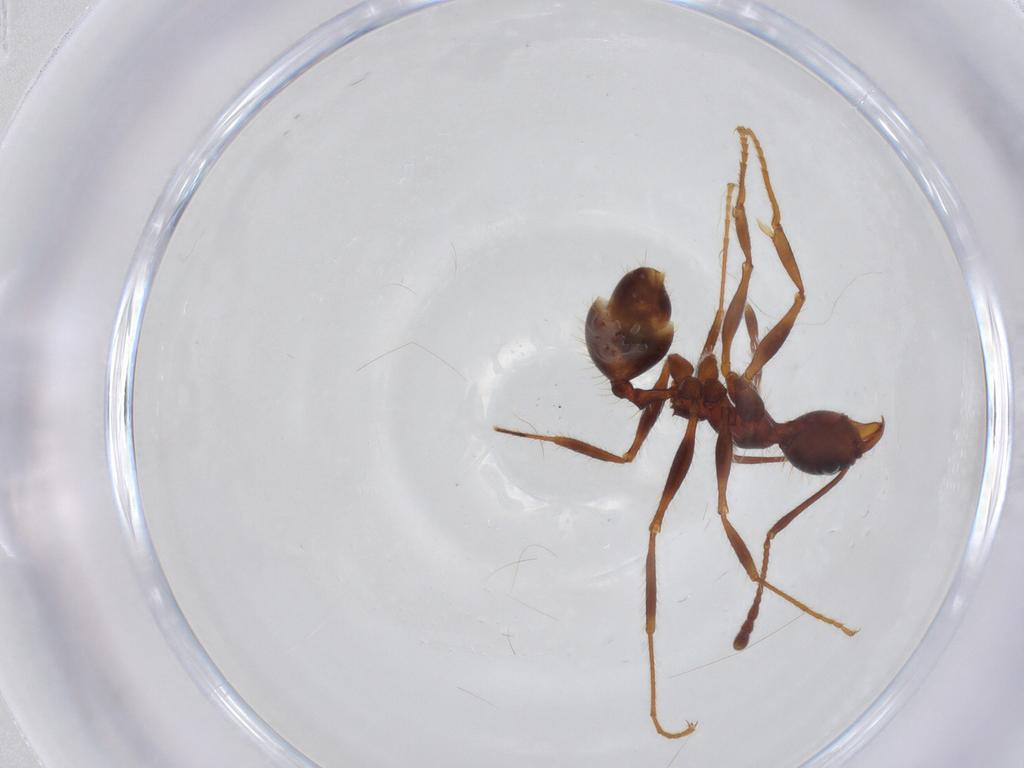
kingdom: Animalia
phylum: Arthropoda
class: Insecta
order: Hymenoptera
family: Formicidae
